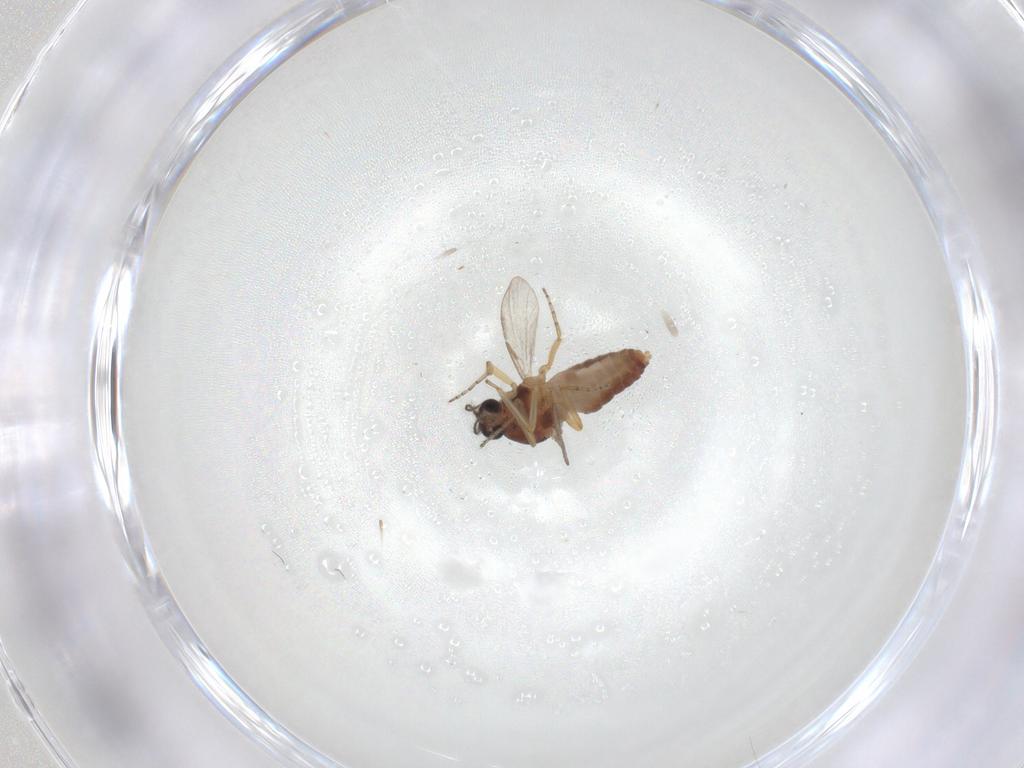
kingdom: Animalia
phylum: Arthropoda
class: Insecta
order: Diptera
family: Ceratopogonidae
